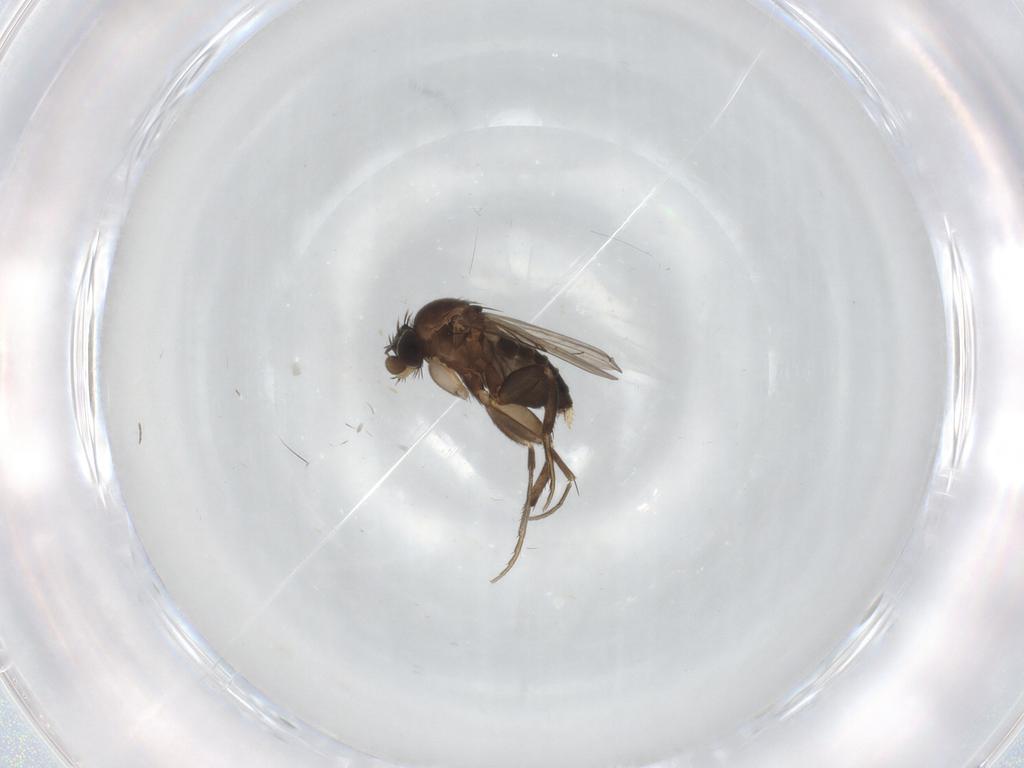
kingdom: Animalia
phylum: Arthropoda
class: Insecta
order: Diptera
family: Phoridae
